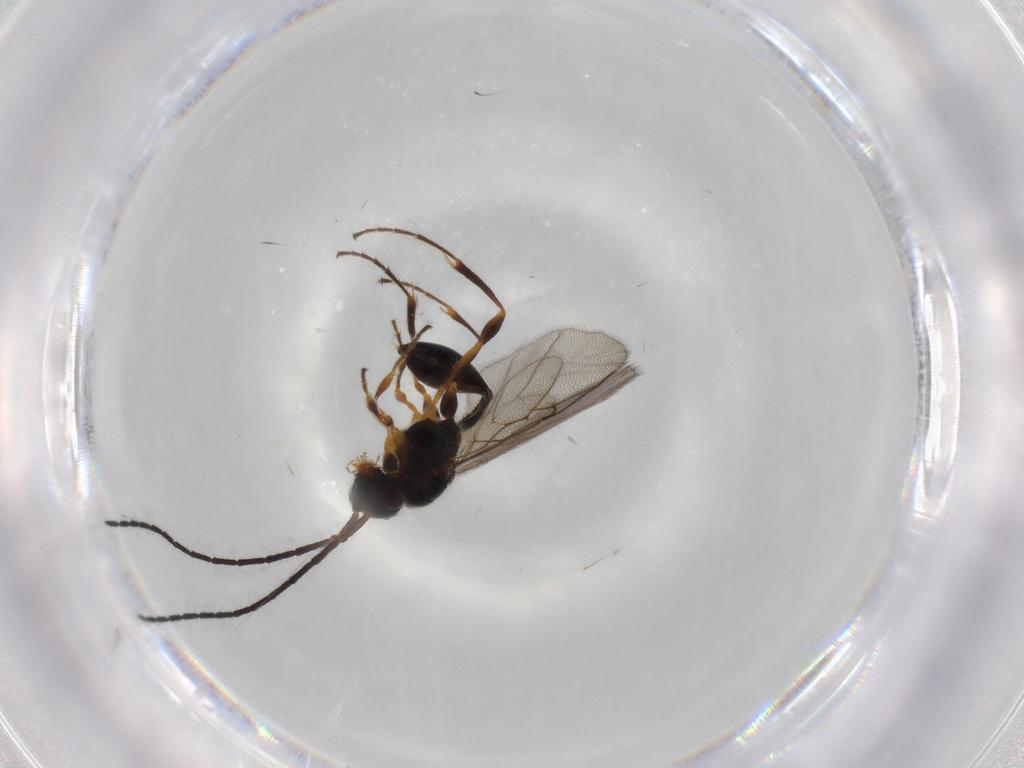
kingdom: Animalia
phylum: Arthropoda
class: Insecta
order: Hymenoptera
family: Diapriidae
